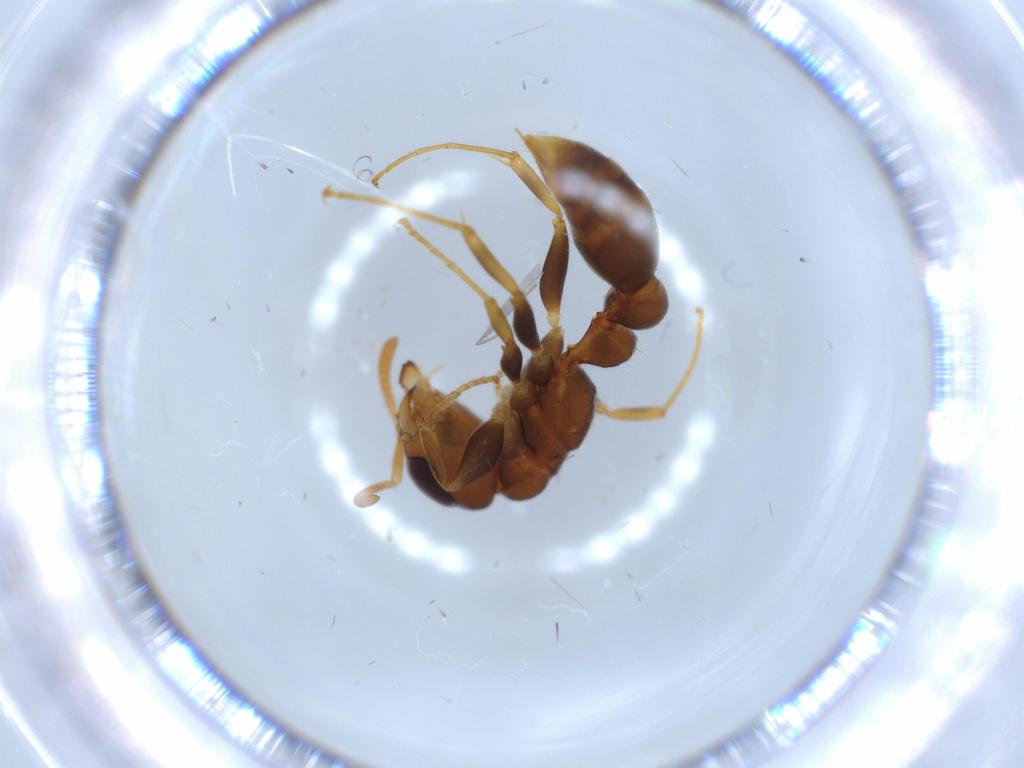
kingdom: Animalia
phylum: Arthropoda
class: Insecta
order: Hymenoptera
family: Formicidae
